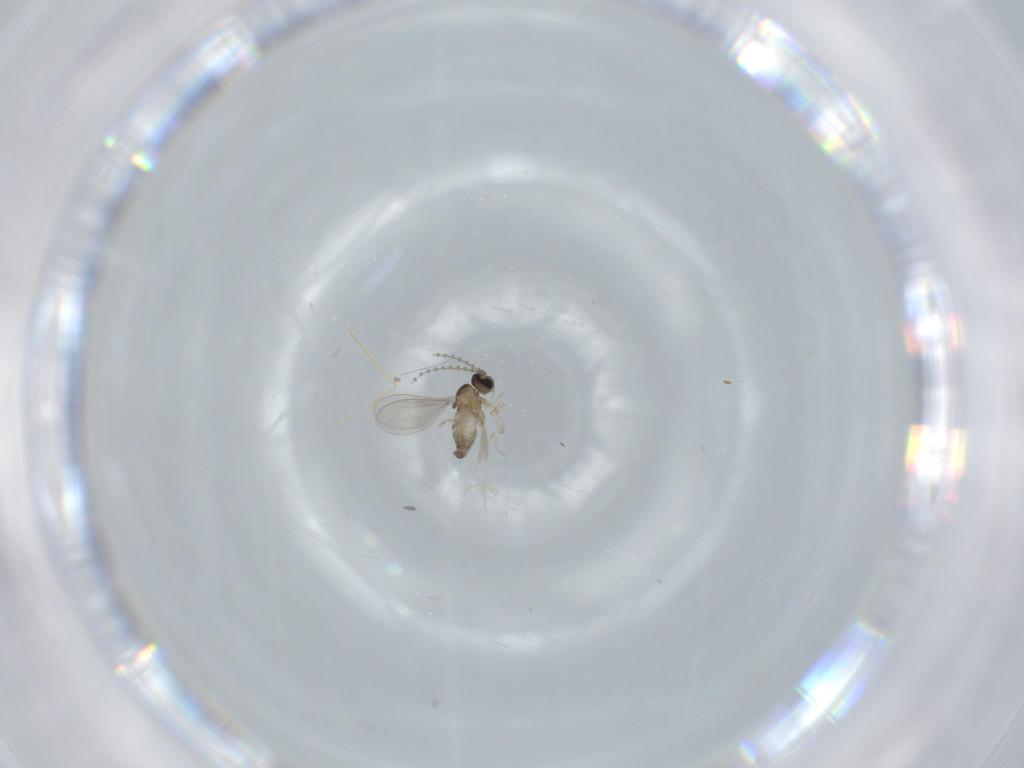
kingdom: Animalia
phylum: Arthropoda
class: Insecta
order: Diptera
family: Cecidomyiidae
